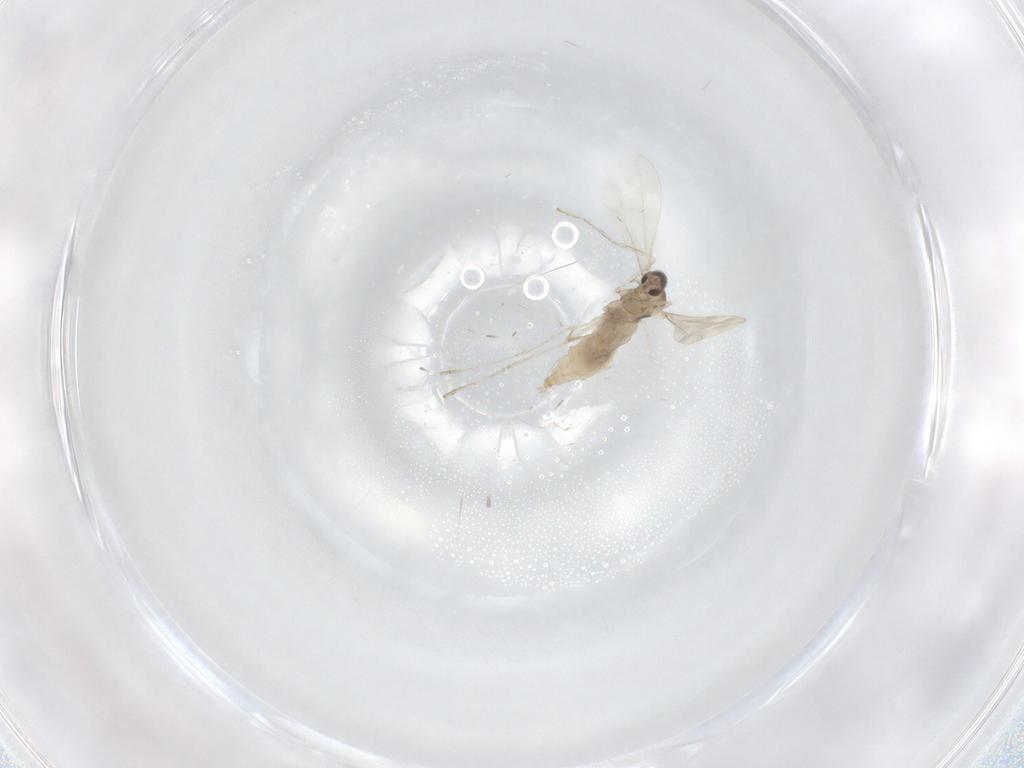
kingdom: Animalia
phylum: Arthropoda
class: Insecta
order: Diptera
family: Cecidomyiidae
